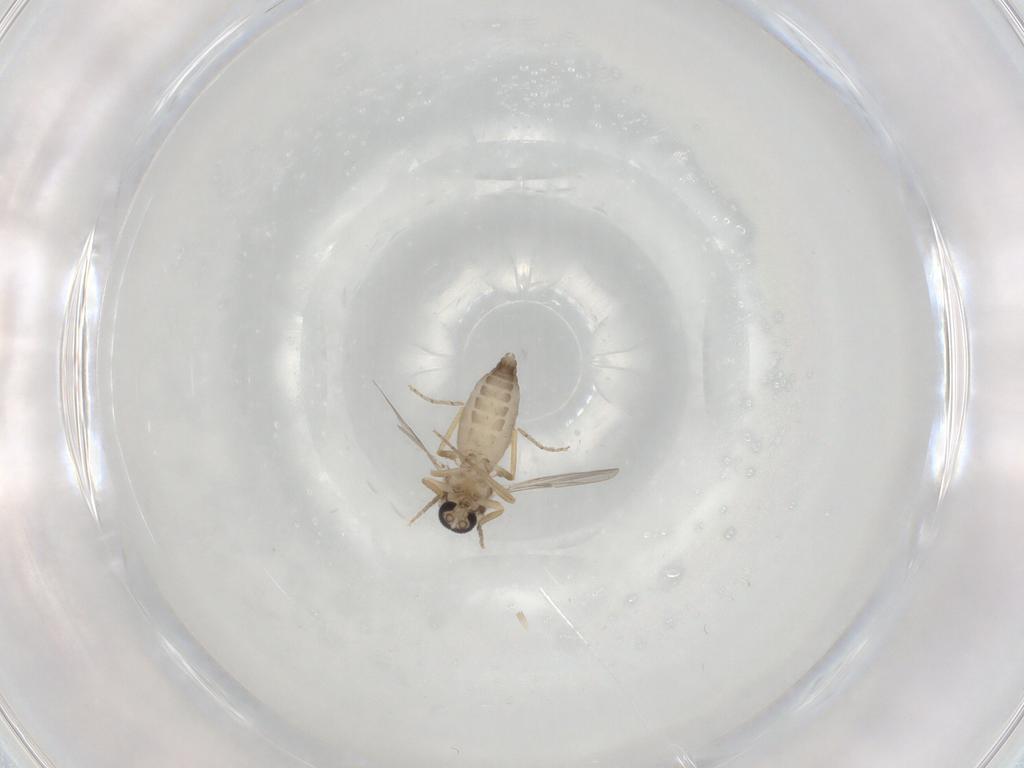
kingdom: Animalia
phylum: Arthropoda
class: Insecta
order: Diptera
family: Ceratopogonidae
